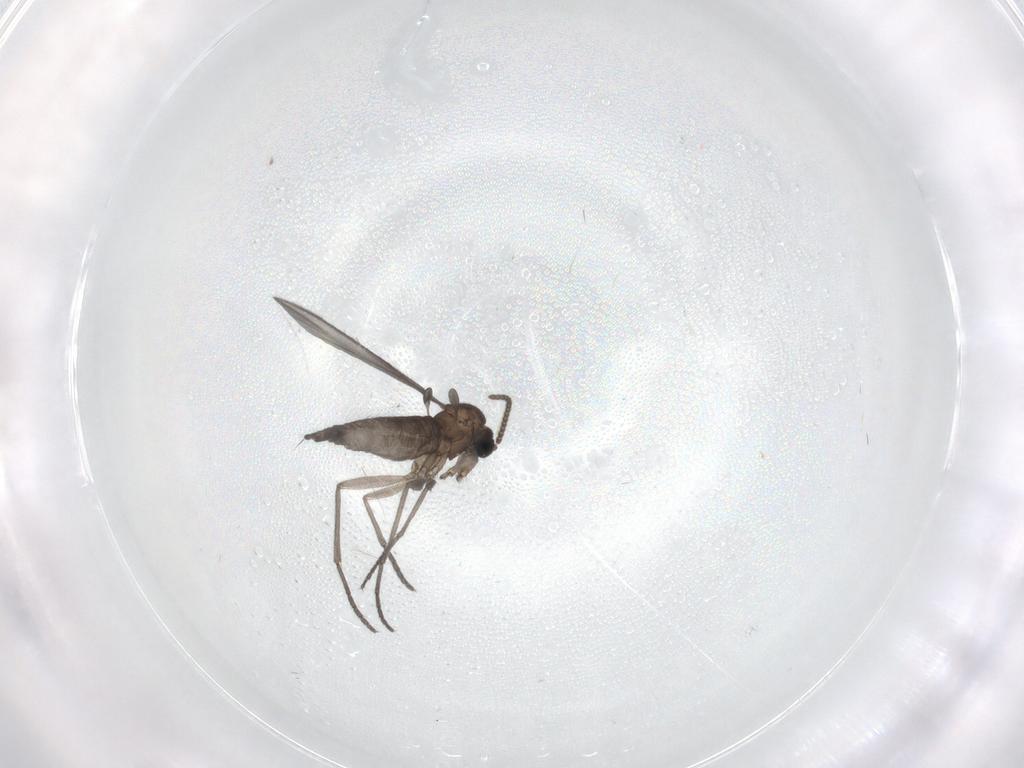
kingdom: Animalia
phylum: Arthropoda
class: Insecta
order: Diptera
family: Sciaridae
